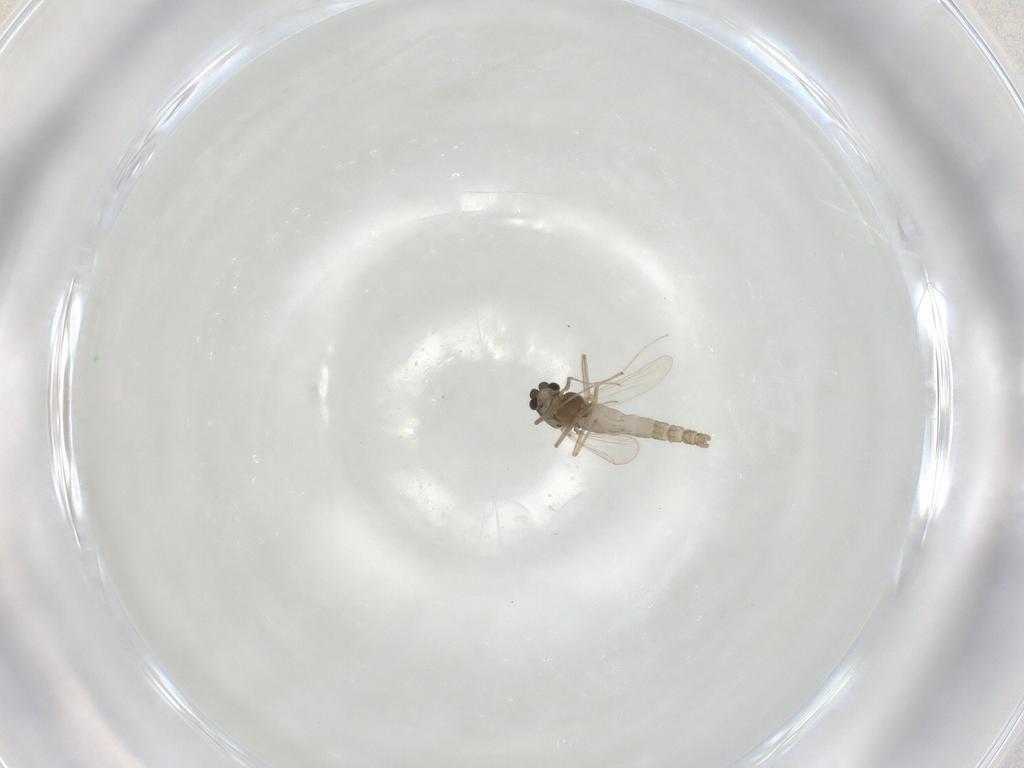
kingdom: Animalia
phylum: Arthropoda
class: Insecta
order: Diptera
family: Chironomidae
